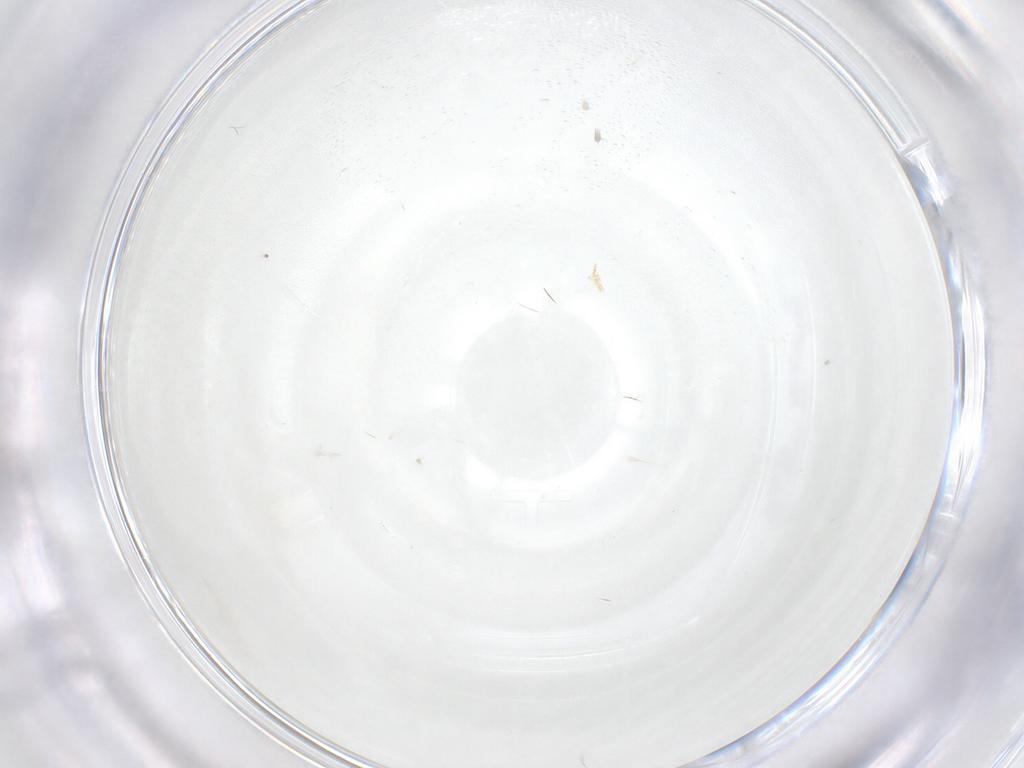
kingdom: Animalia
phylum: Arthropoda
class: Insecta
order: Coleoptera
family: Endomychidae
